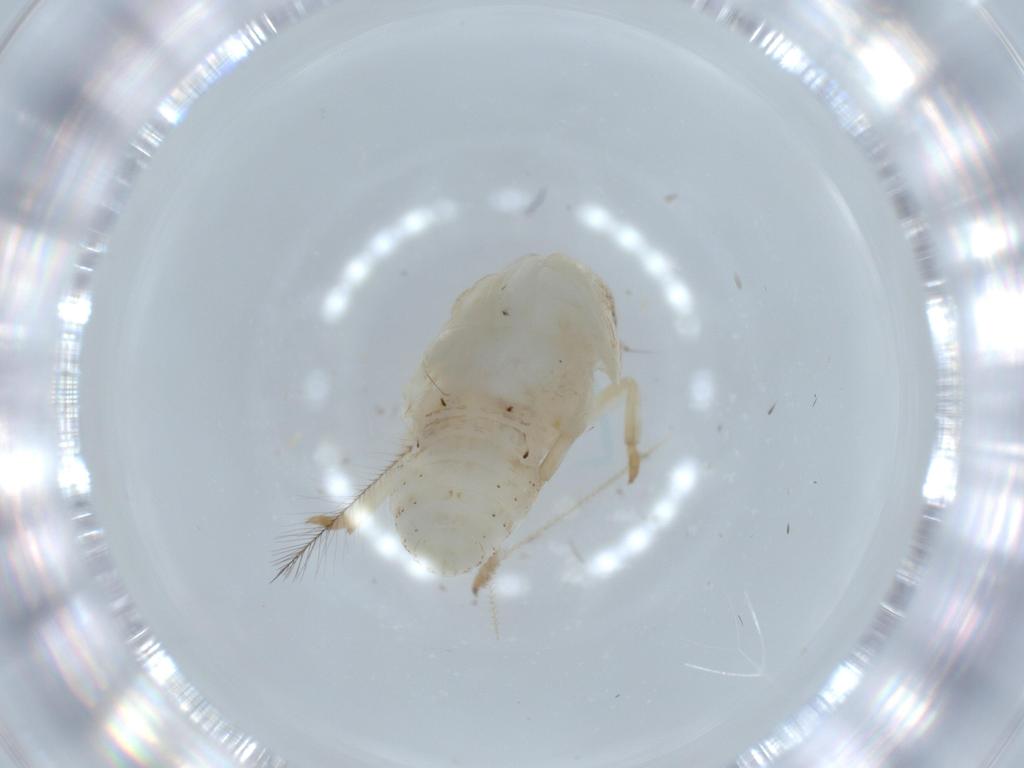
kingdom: Animalia
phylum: Arthropoda
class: Insecta
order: Hemiptera
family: Acanaloniidae
